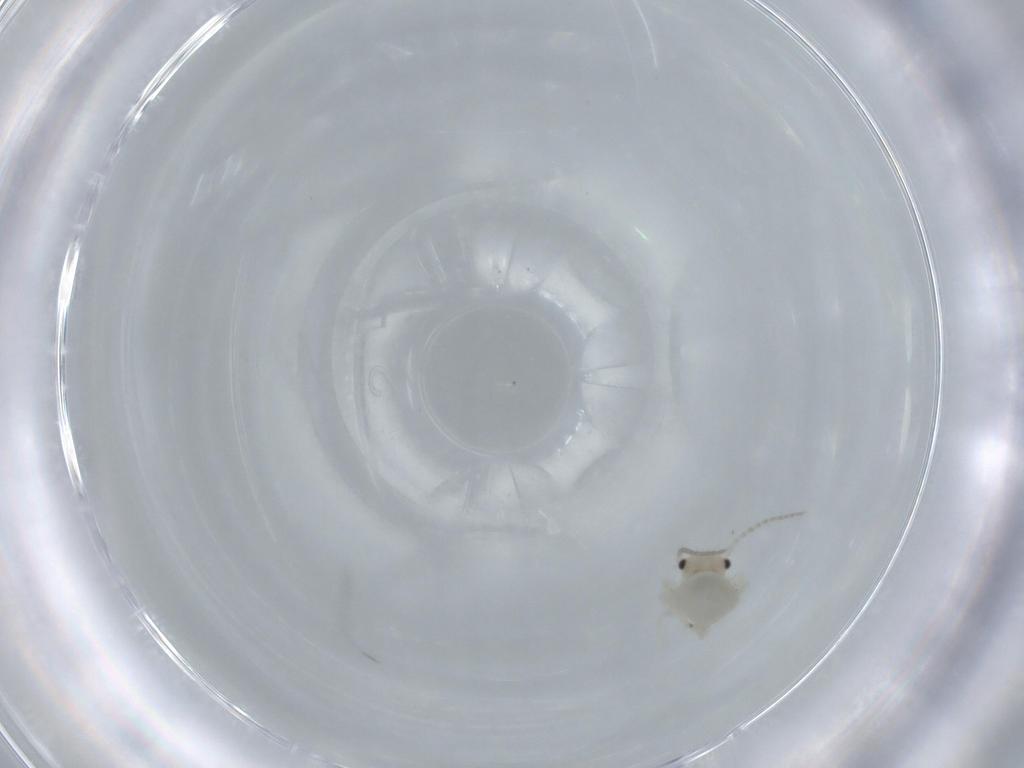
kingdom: Animalia
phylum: Arthropoda
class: Insecta
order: Psocodea
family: Amphipsocidae
